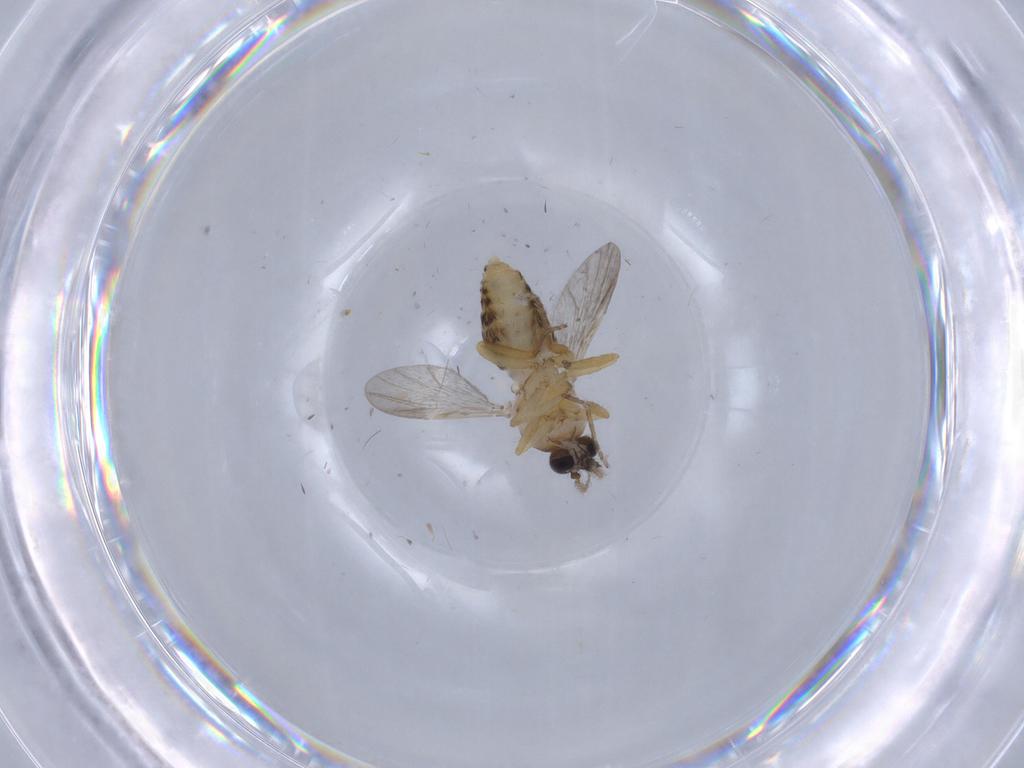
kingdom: Animalia
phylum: Arthropoda
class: Insecta
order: Diptera
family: Ceratopogonidae
